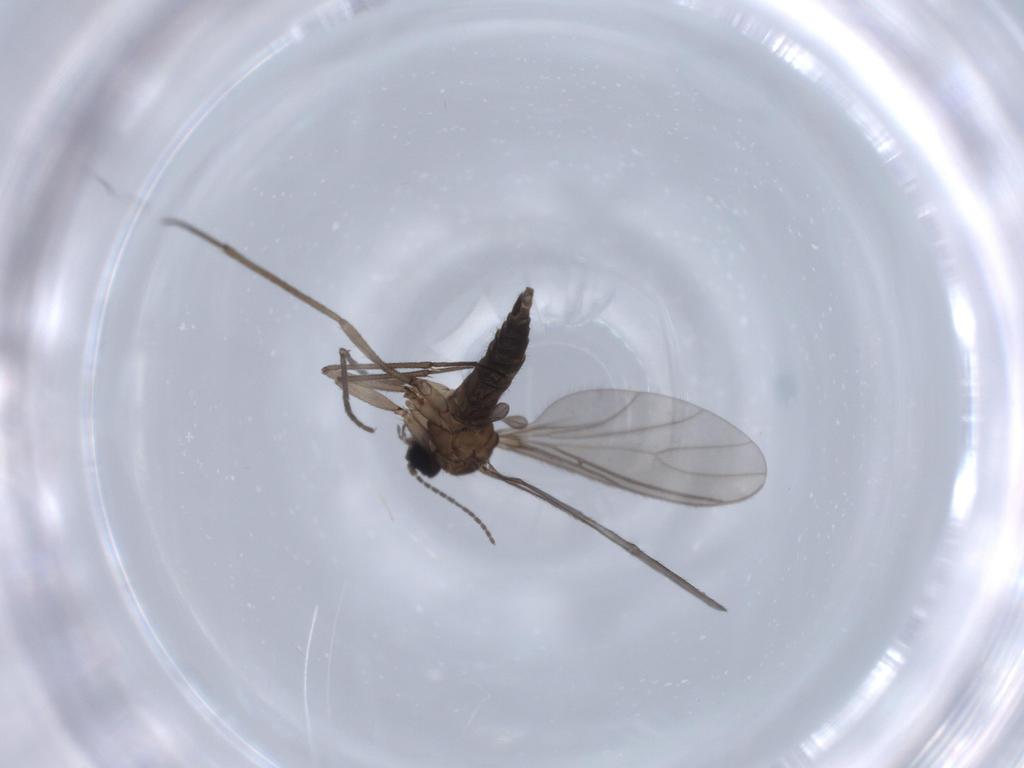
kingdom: Animalia
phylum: Arthropoda
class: Insecta
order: Diptera
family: Sciaridae
